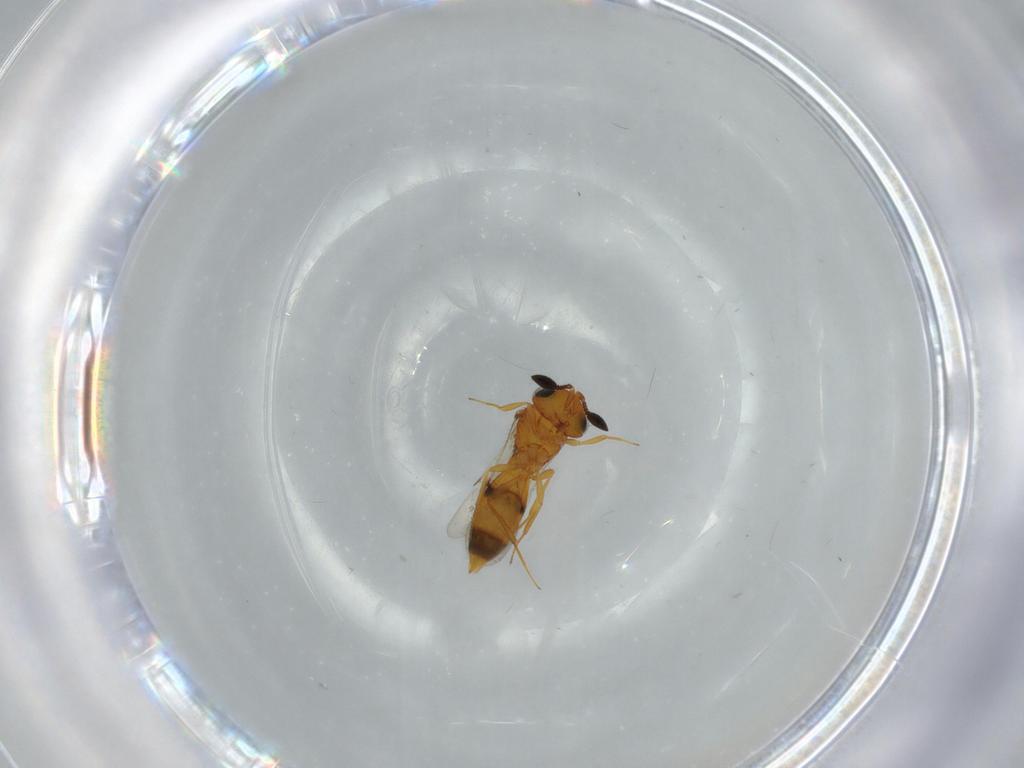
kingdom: Animalia
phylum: Arthropoda
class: Insecta
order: Hymenoptera
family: Scelionidae
